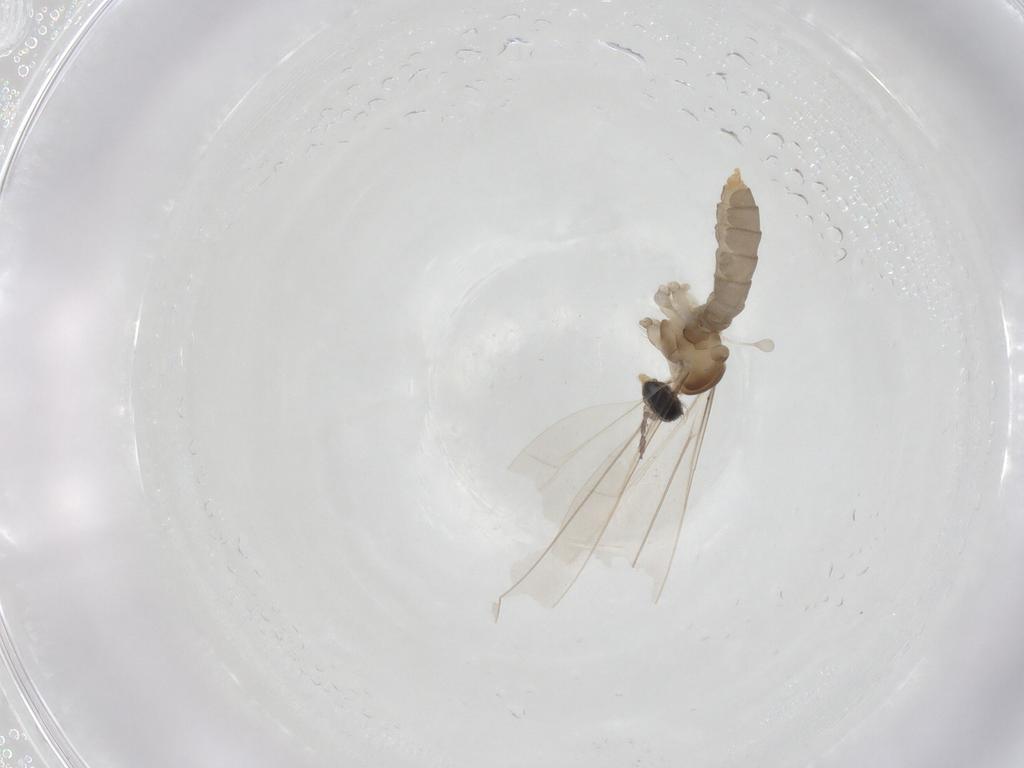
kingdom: Animalia
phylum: Arthropoda
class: Insecta
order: Diptera
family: Cecidomyiidae
